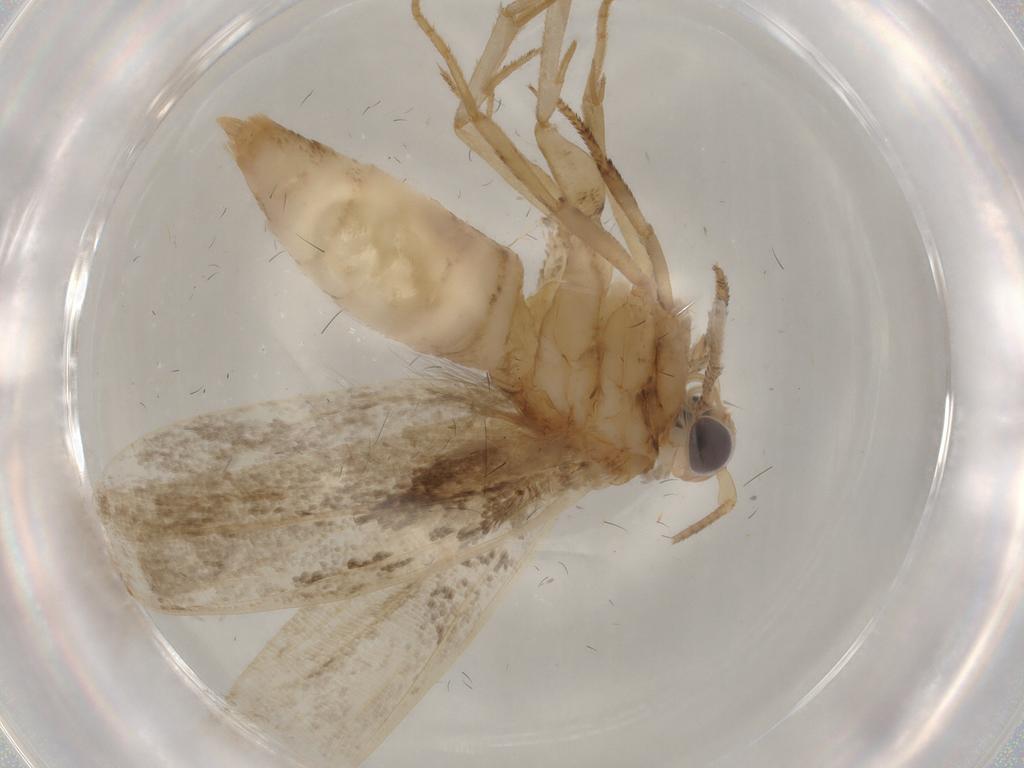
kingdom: Animalia
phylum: Arthropoda
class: Insecta
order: Lepidoptera
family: Yponomeutidae
